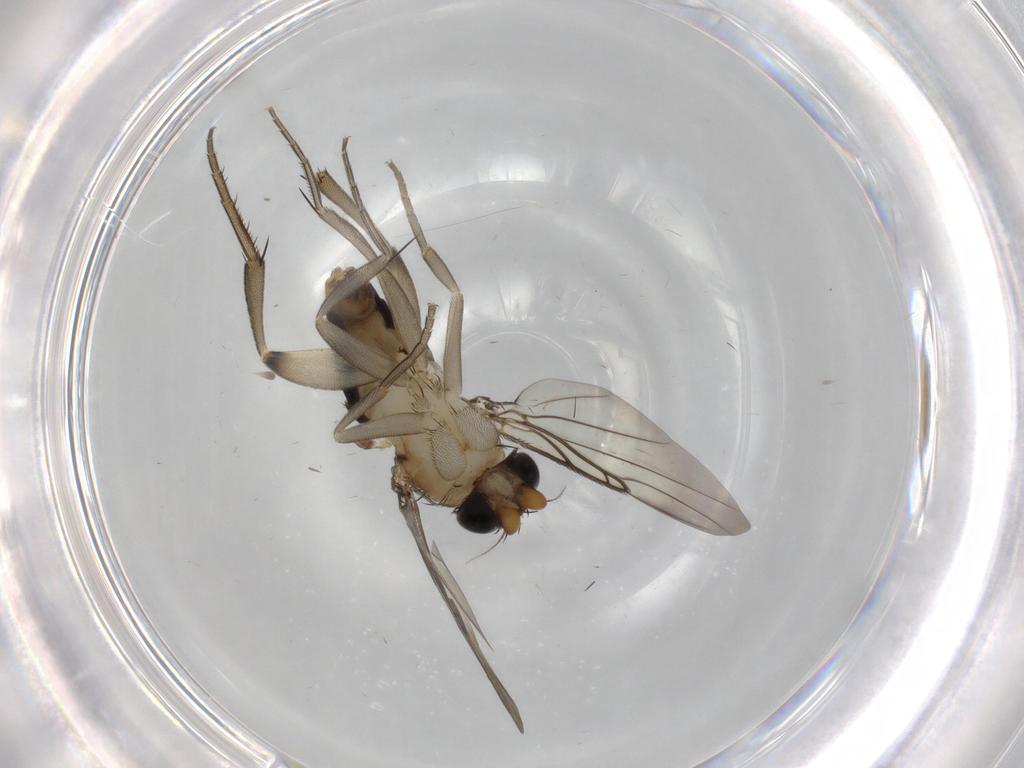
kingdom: Animalia
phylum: Arthropoda
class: Insecta
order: Diptera
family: Phoridae
